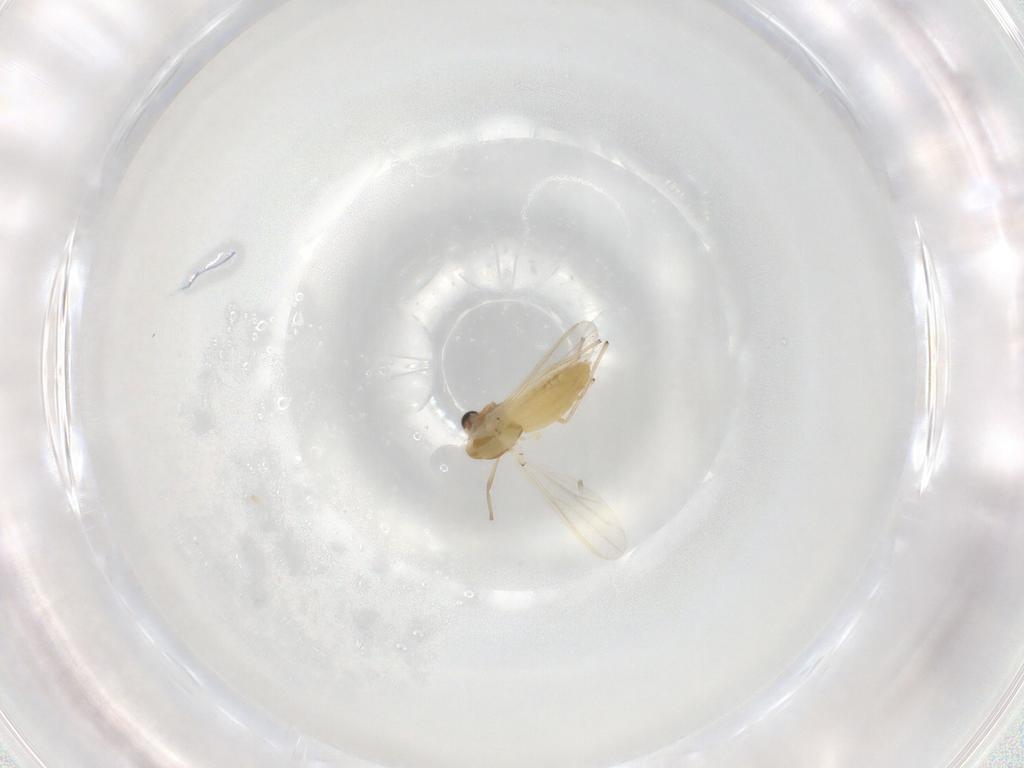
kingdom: Animalia
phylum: Arthropoda
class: Insecta
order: Diptera
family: Chironomidae
